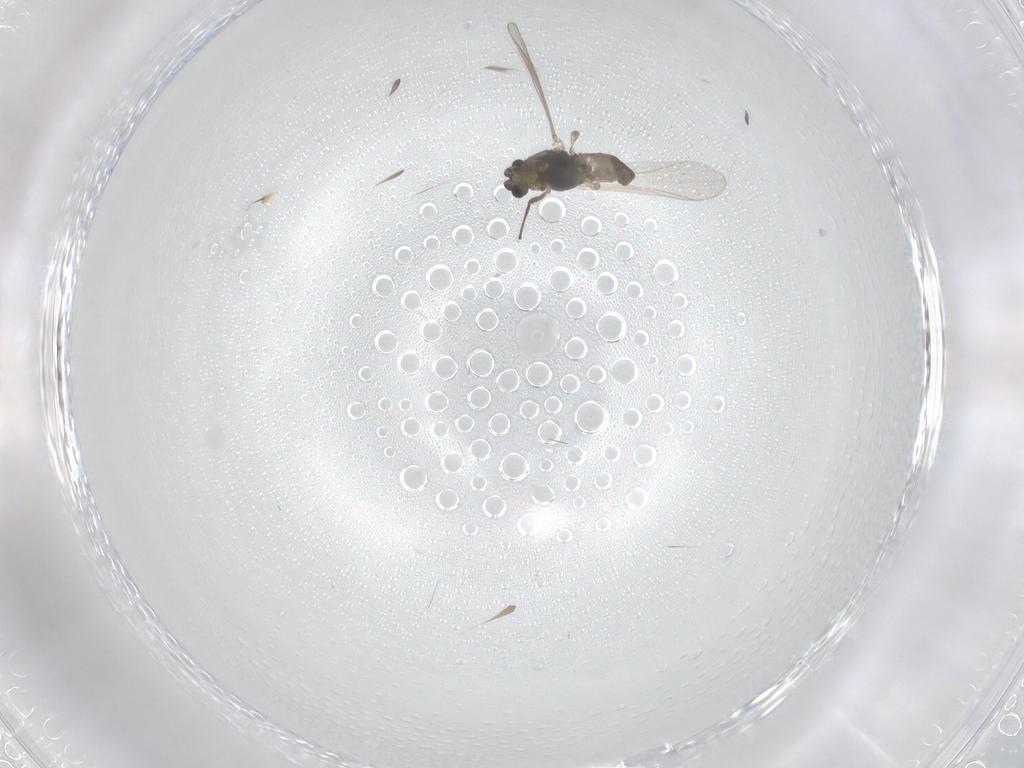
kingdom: Animalia
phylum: Arthropoda
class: Insecta
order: Diptera
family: Chironomidae
